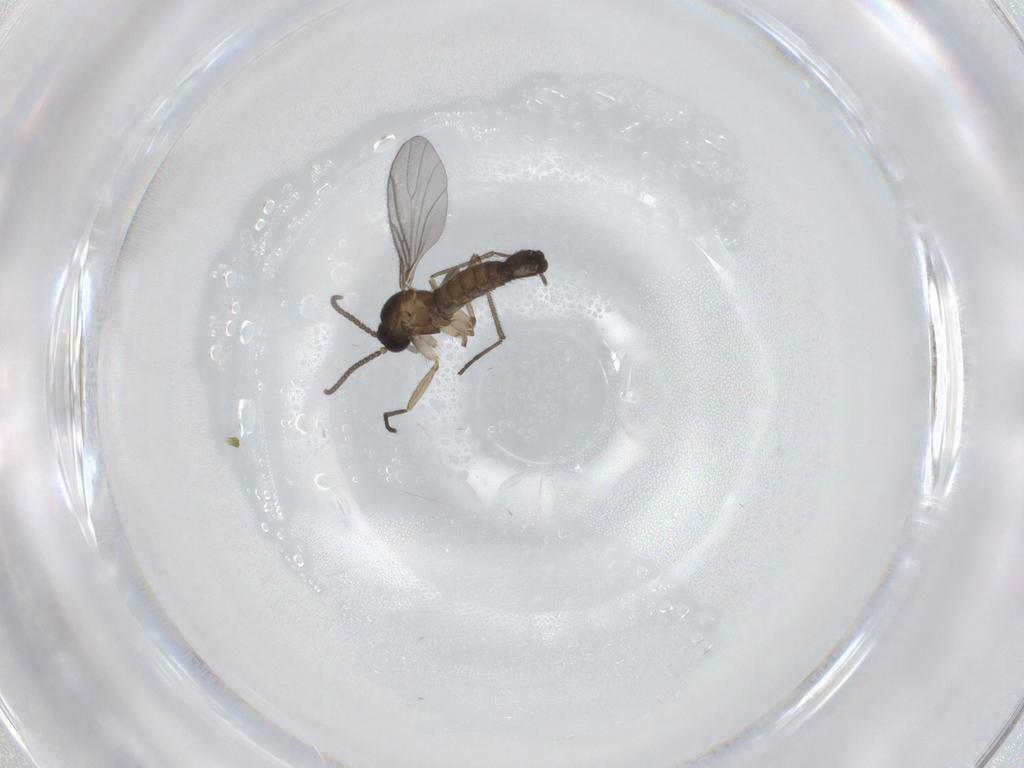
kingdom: Animalia
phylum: Arthropoda
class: Insecta
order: Diptera
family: Sciaridae
